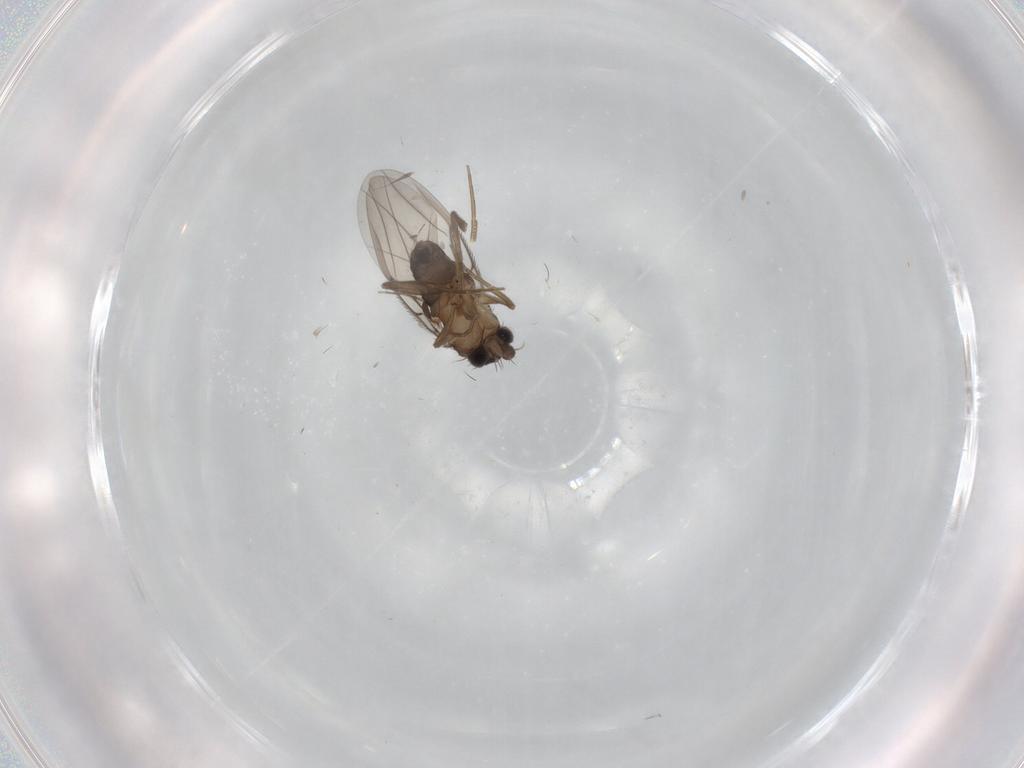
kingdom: Animalia
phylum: Arthropoda
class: Insecta
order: Diptera
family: Phoridae
